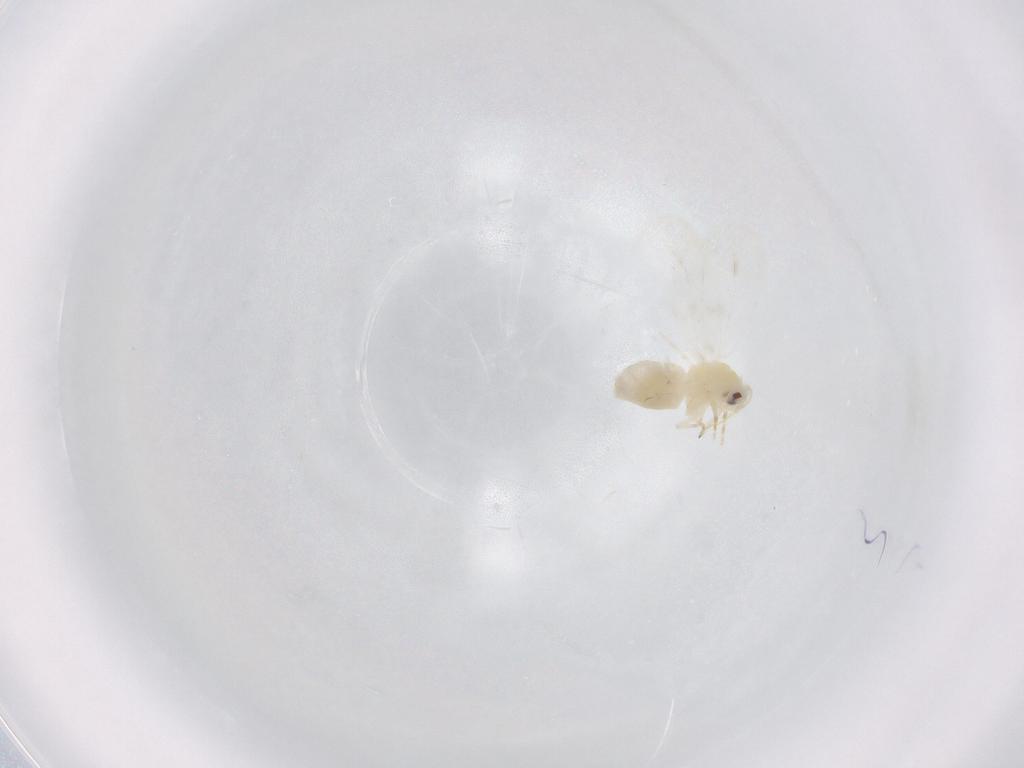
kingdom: Animalia
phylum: Arthropoda
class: Insecta
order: Hemiptera
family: Aleyrodidae
